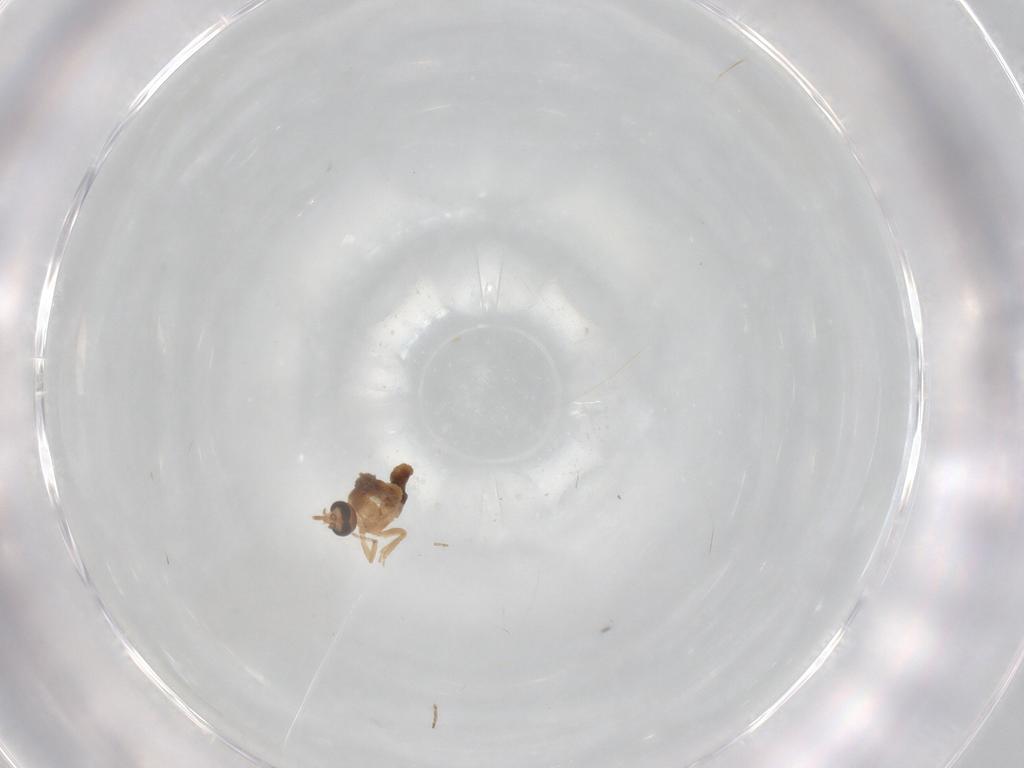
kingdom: Animalia
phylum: Arthropoda
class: Insecta
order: Diptera
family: Ceratopogonidae
